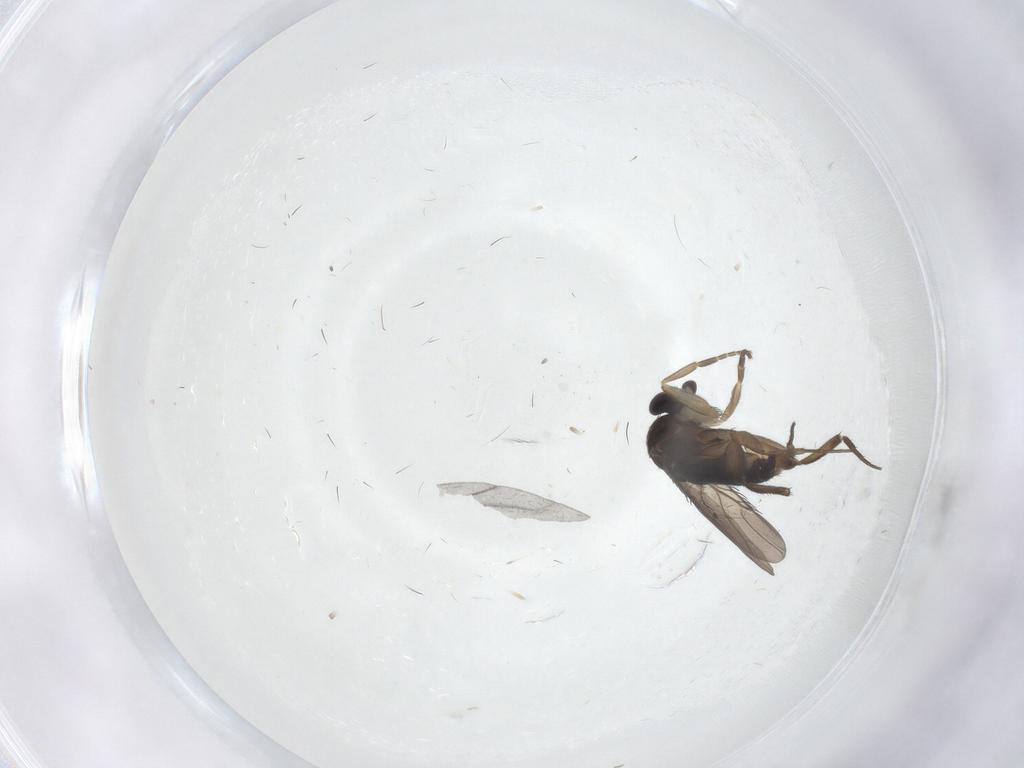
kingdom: Animalia
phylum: Arthropoda
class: Insecta
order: Diptera
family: Phoridae
